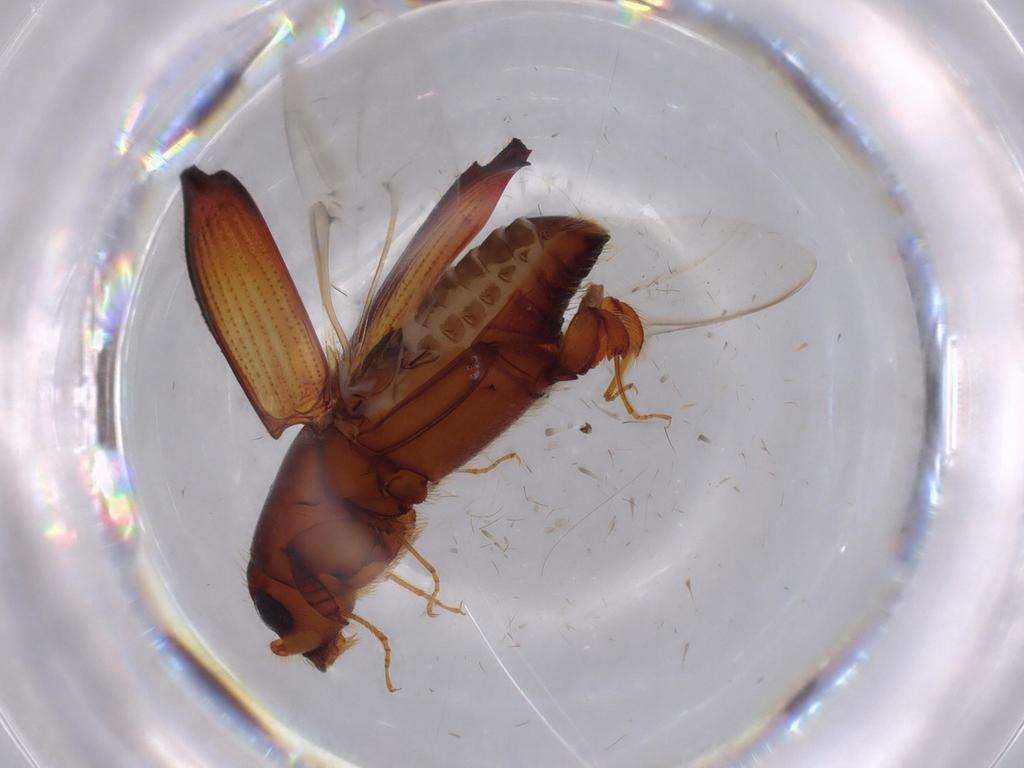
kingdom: Animalia
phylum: Arthropoda
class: Insecta
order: Coleoptera
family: Curculionidae
